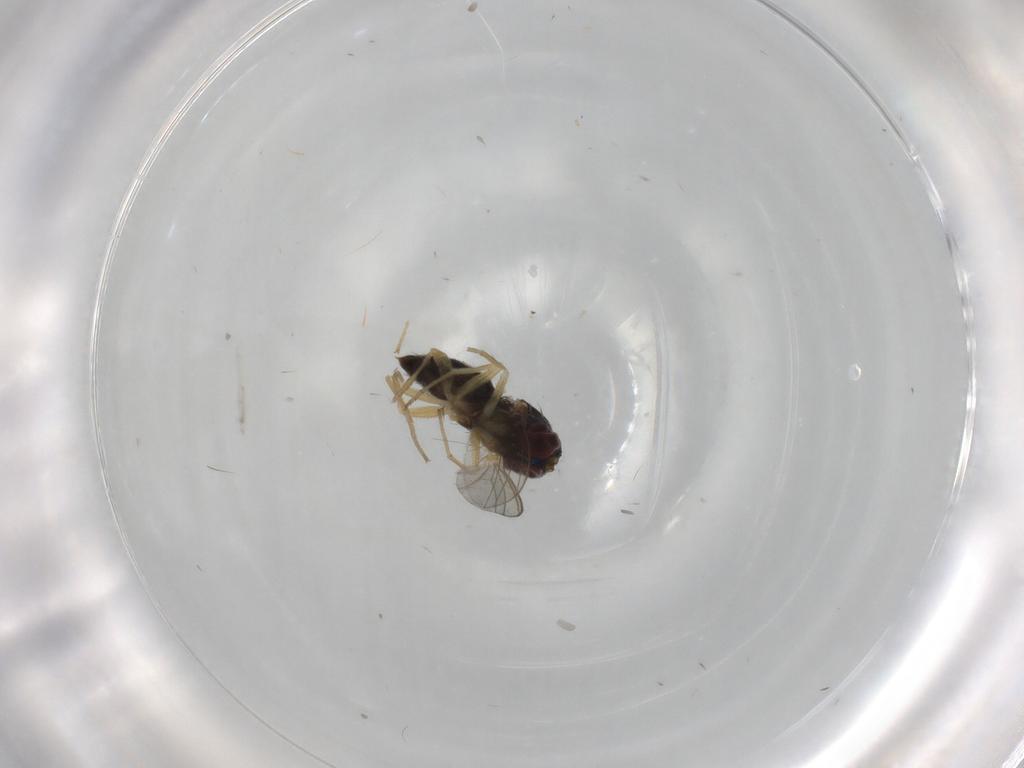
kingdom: Animalia
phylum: Arthropoda
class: Insecta
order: Diptera
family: Dolichopodidae
